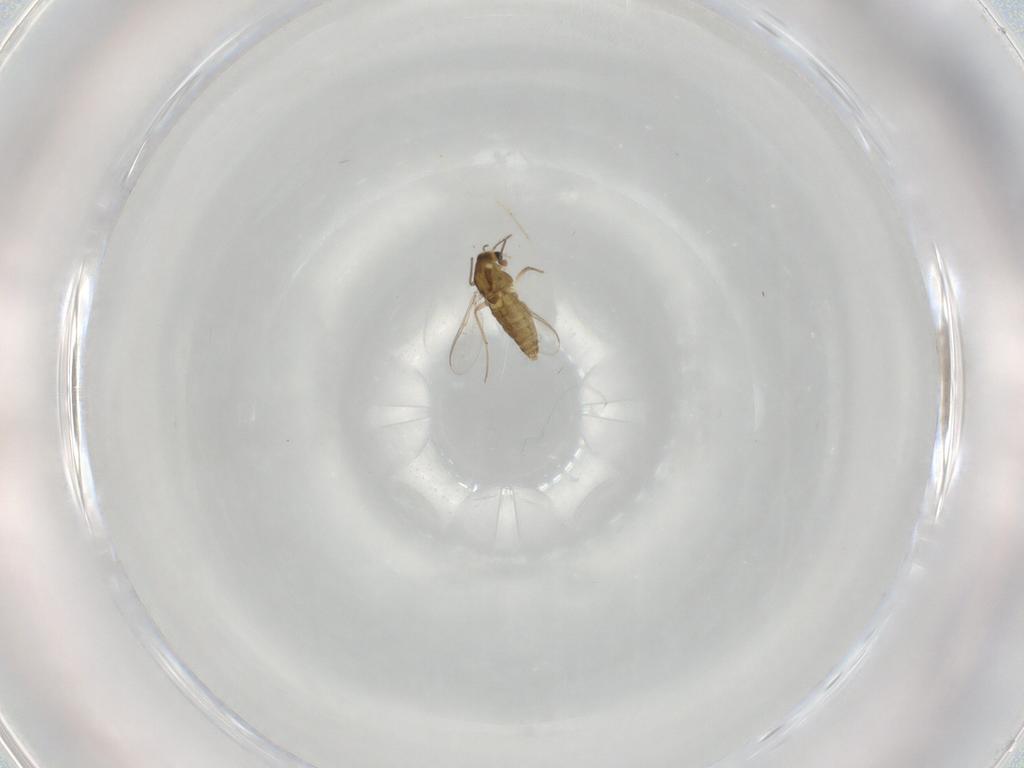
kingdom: Animalia
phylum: Arthropoda
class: Insecta
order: Diptera
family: Chironomidae
